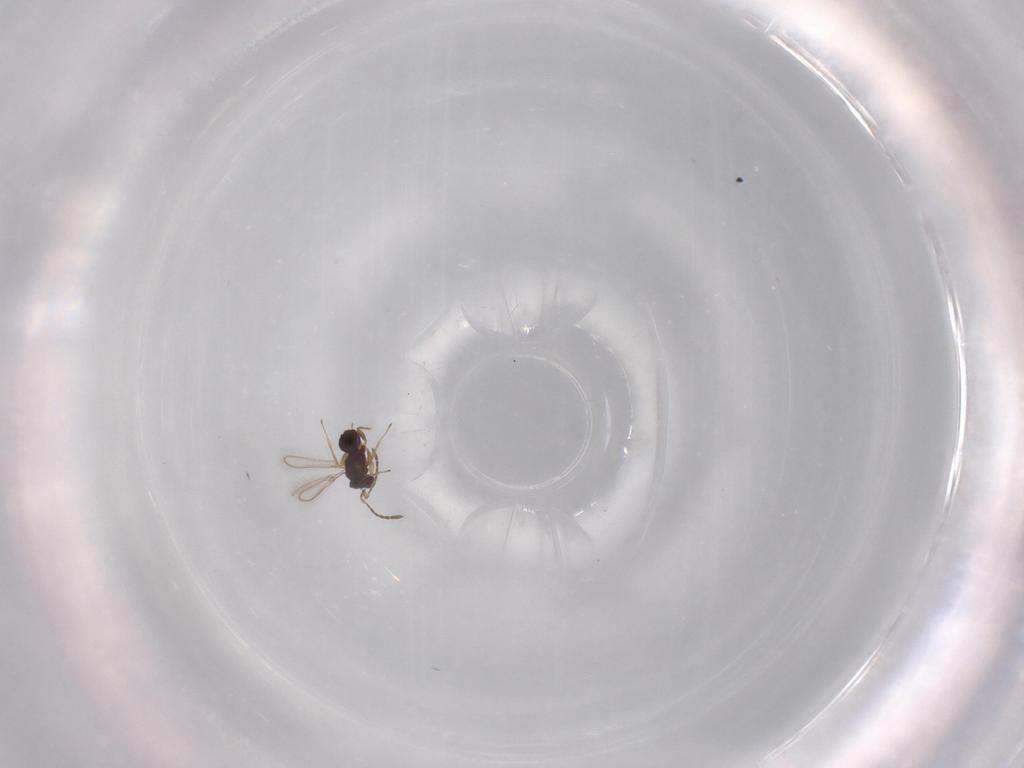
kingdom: Animalia
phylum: Arthropoda
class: Insecta
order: Hymenoptera
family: Mymaridae
